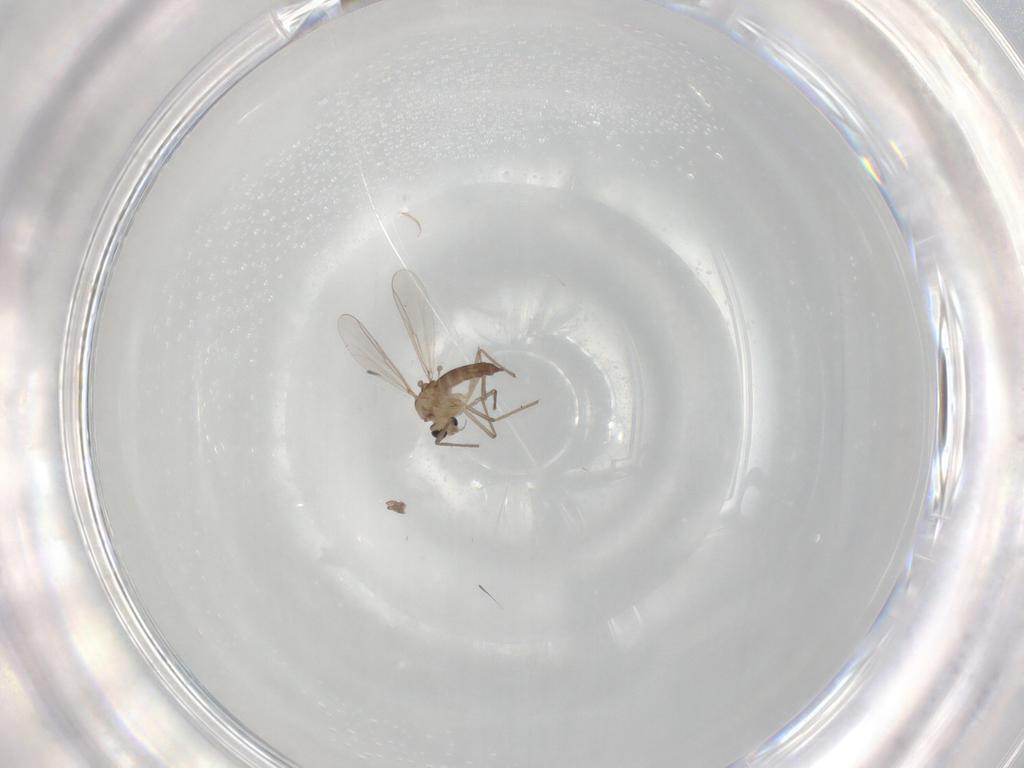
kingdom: Animalia
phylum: Arthropoda
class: Insecta
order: Diptera
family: Chironomidae
